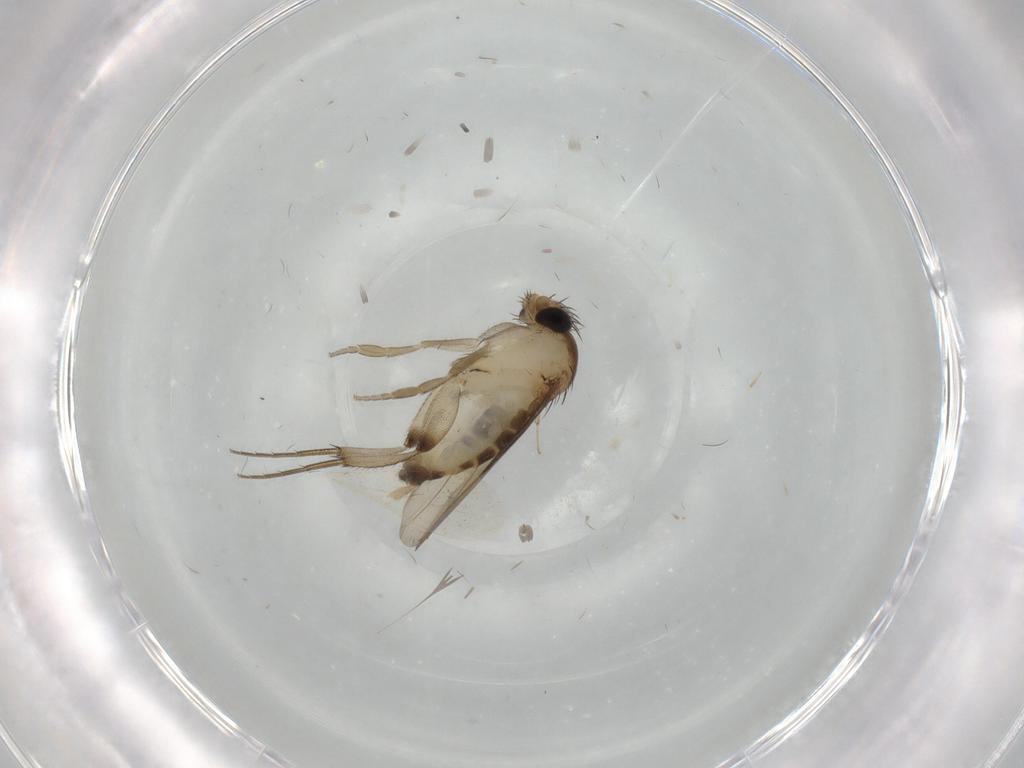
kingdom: Animalia
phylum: Arthropoda
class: Insecta
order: Diptera
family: Phoridae
